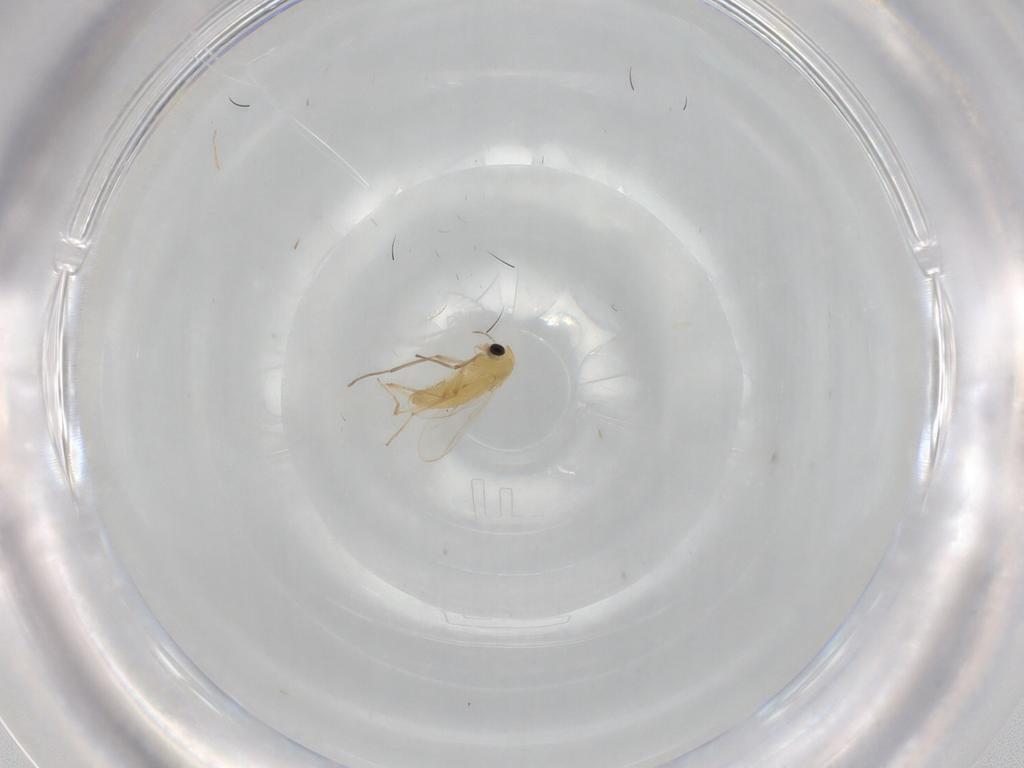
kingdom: Animalia
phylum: Arthropoda
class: Insecta
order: Diptera
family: Chironomidae
